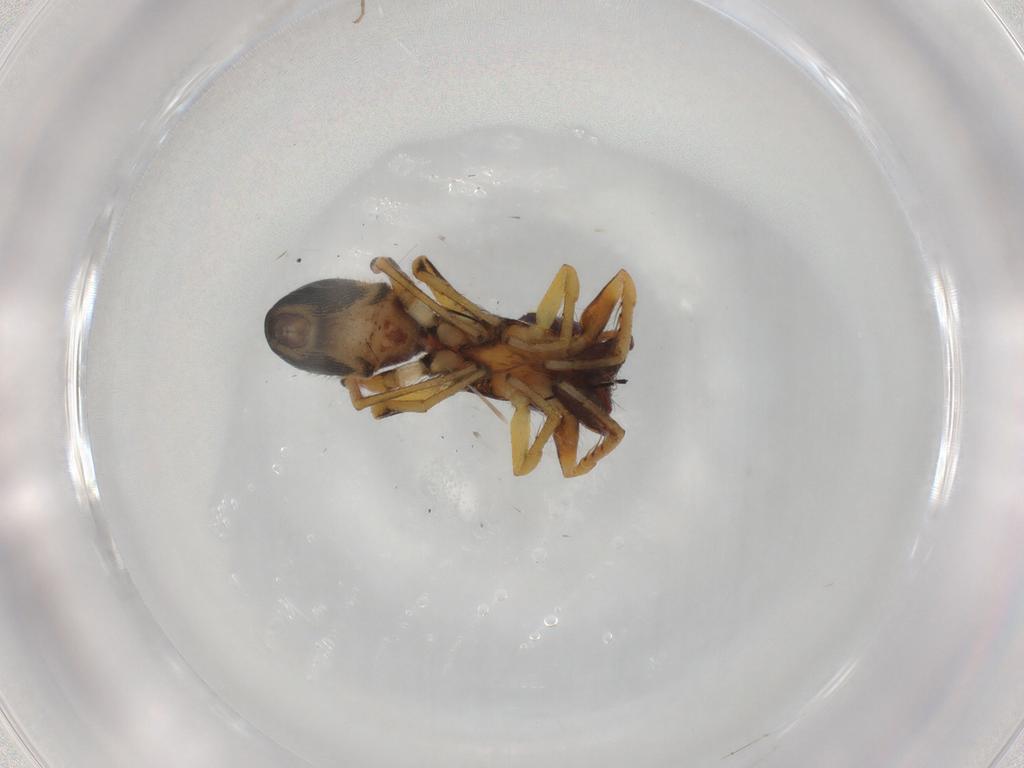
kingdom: Animalia
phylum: Arthropoda
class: Arachnida
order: Araneae
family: Salticidae
